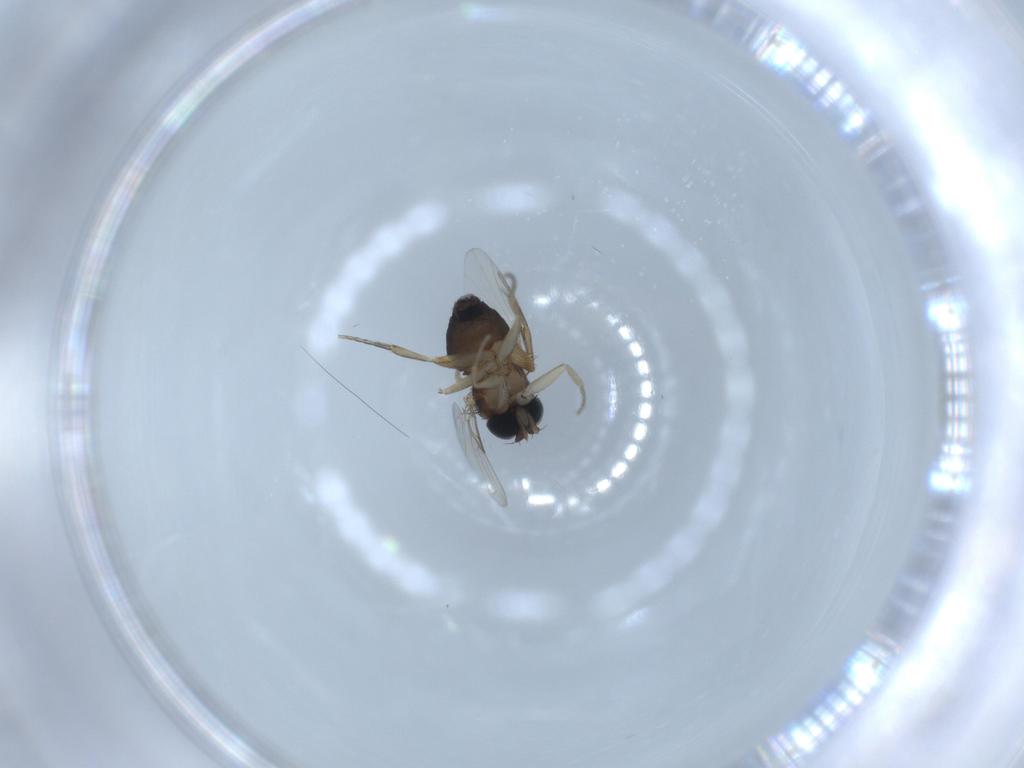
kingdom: Animalia
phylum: Arthropoda
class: Insecta
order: Diptera
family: Phoridae
